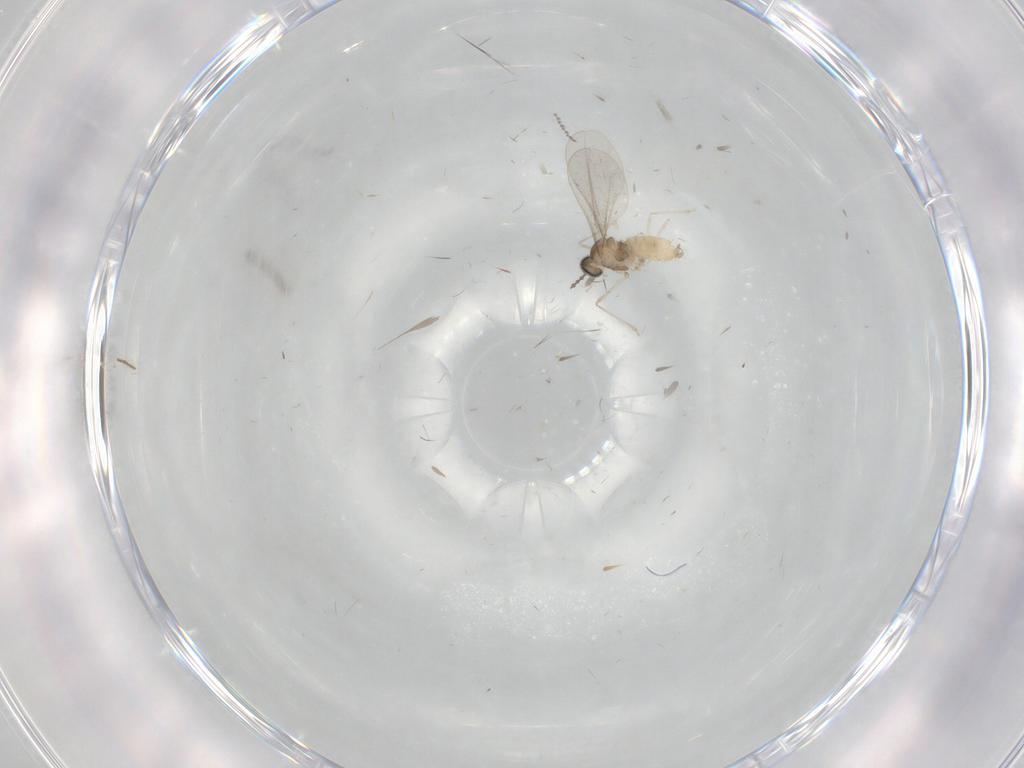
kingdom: Animalia
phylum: Arthropoda
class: Insecta
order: Diptera
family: Cecidomyiidae
